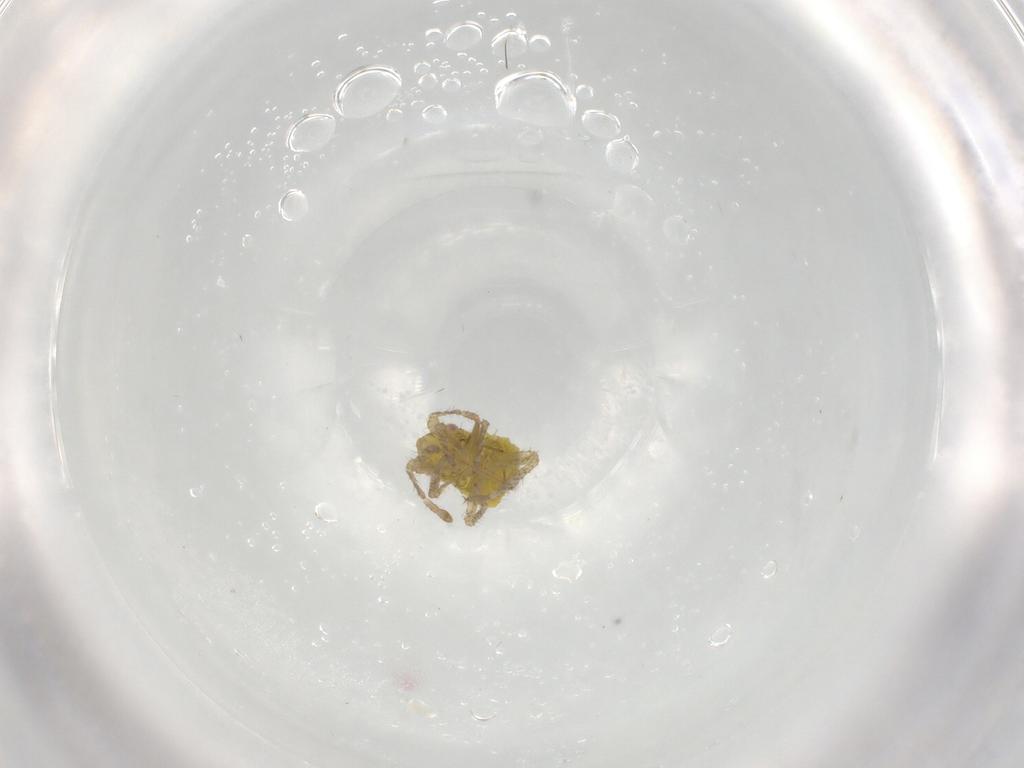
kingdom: Animalia
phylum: Arthropoda
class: Insecta
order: Hemiptera
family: Miridae
